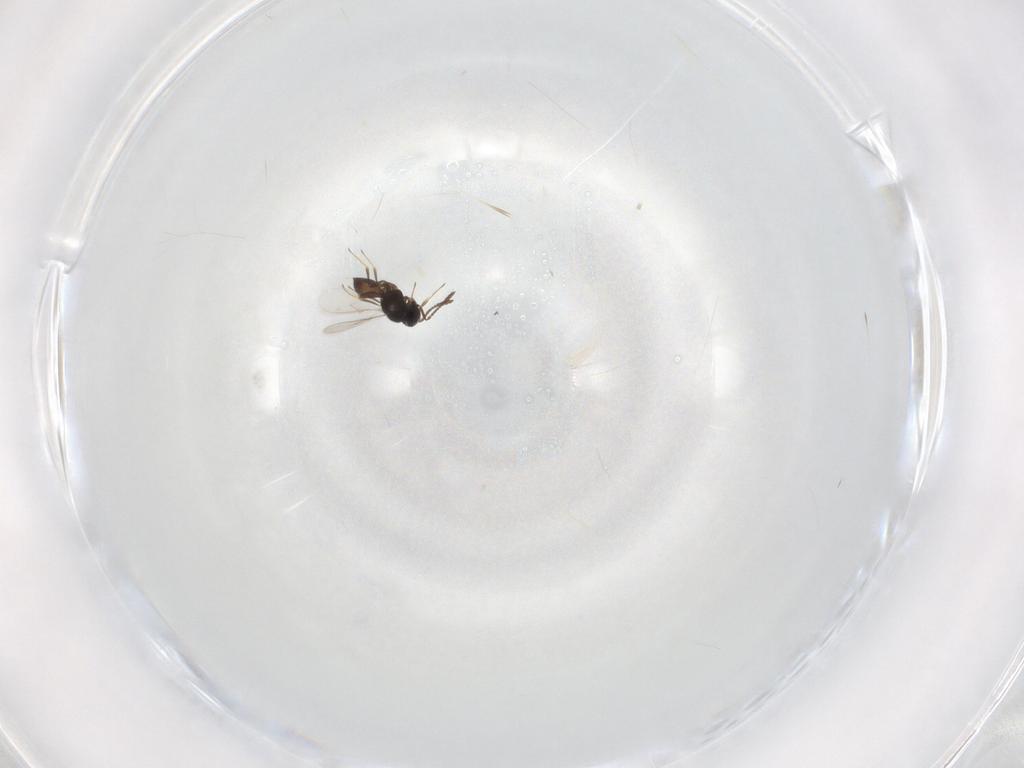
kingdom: Animalia
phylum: Arthropoda
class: Insecta
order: Hymenoptera
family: Scelionidae
